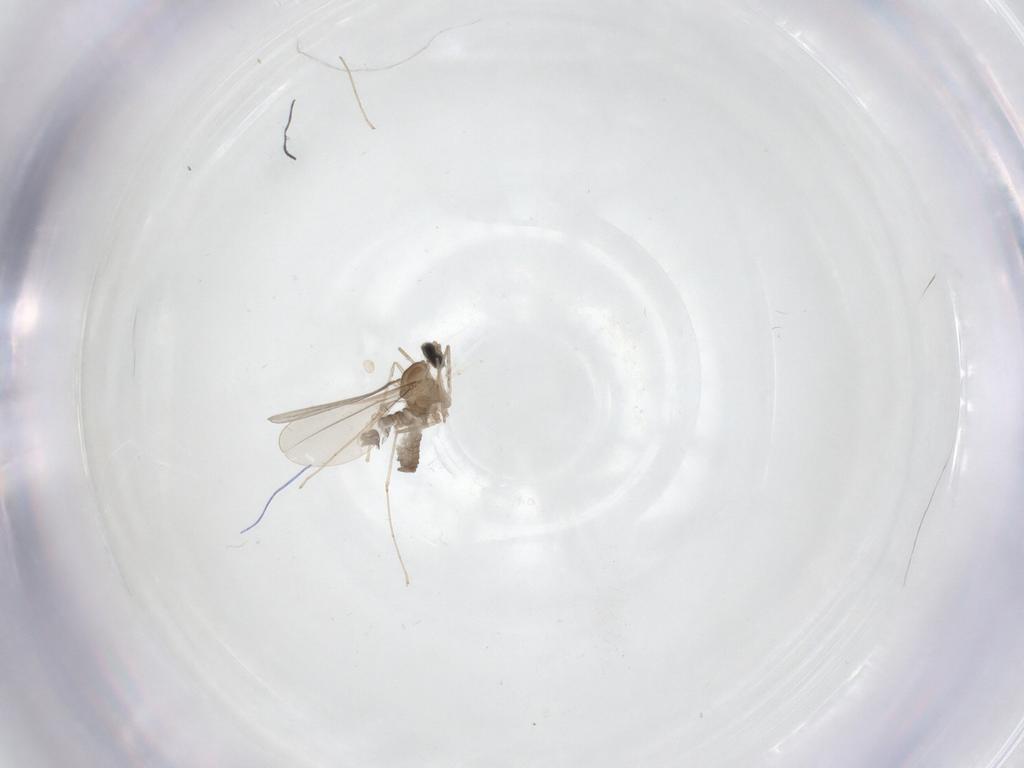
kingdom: Animalia
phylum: Arthropoda
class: Insecta
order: Diptera
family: Cecidomyiidae
